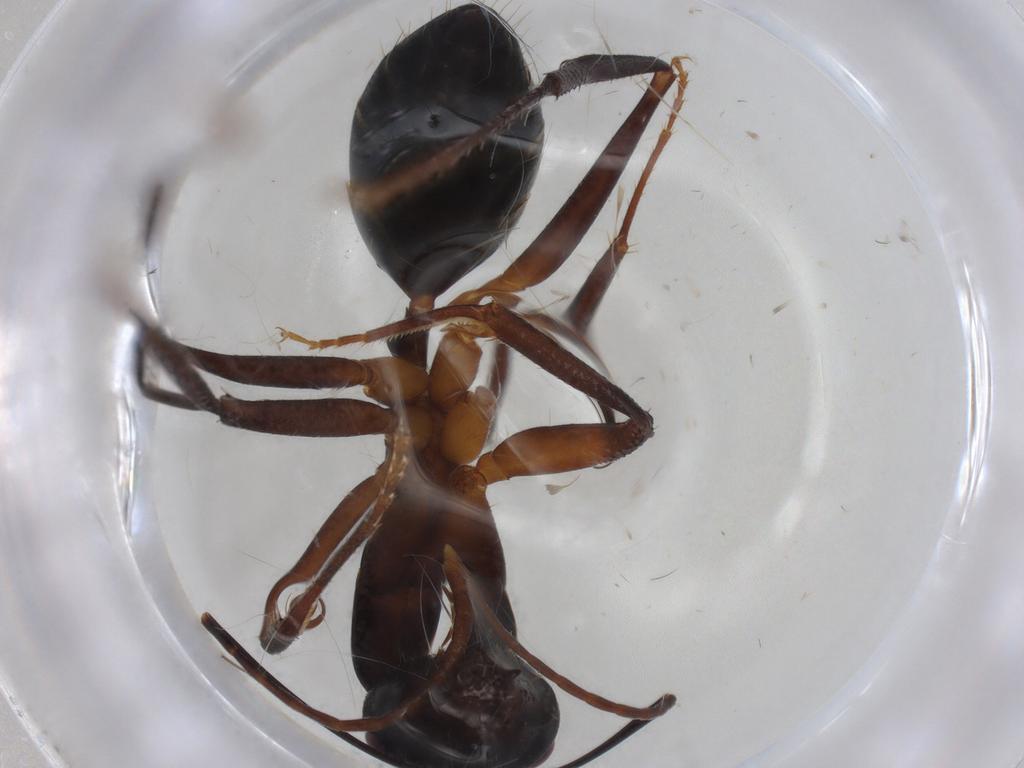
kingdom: Animalia
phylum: Arthropoda
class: Insecta
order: Hymenoptera
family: Formicidae
